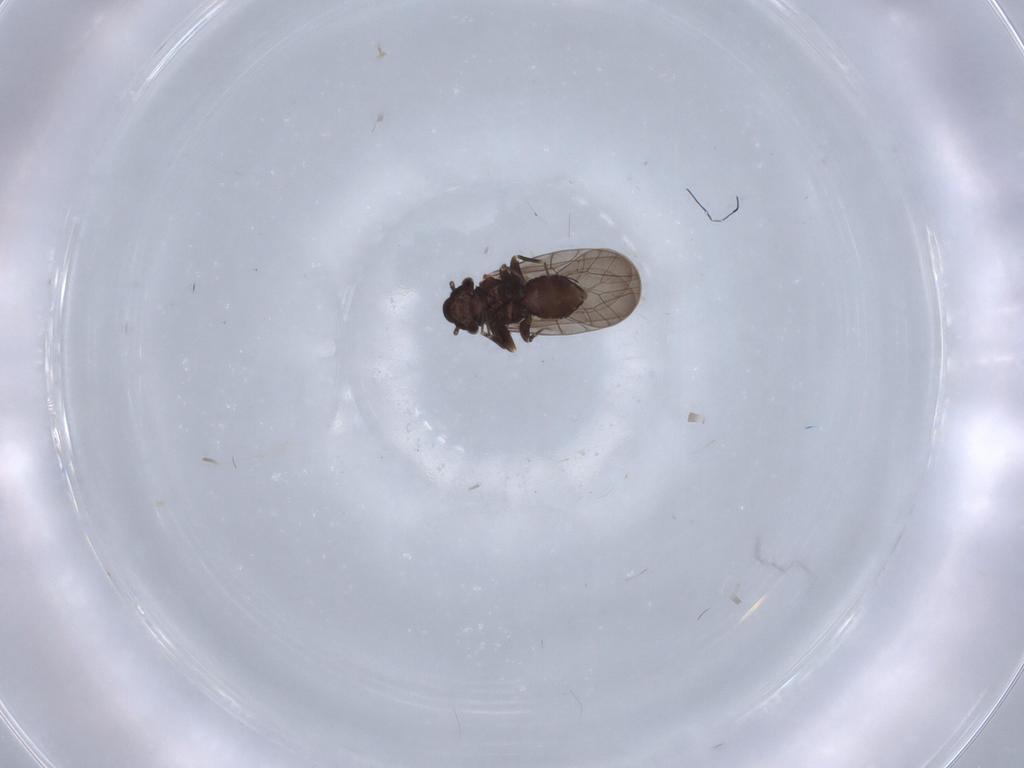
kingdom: Animalia
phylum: Arthropoda
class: Insecta
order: Psocodea
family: Lepidopsocidae
